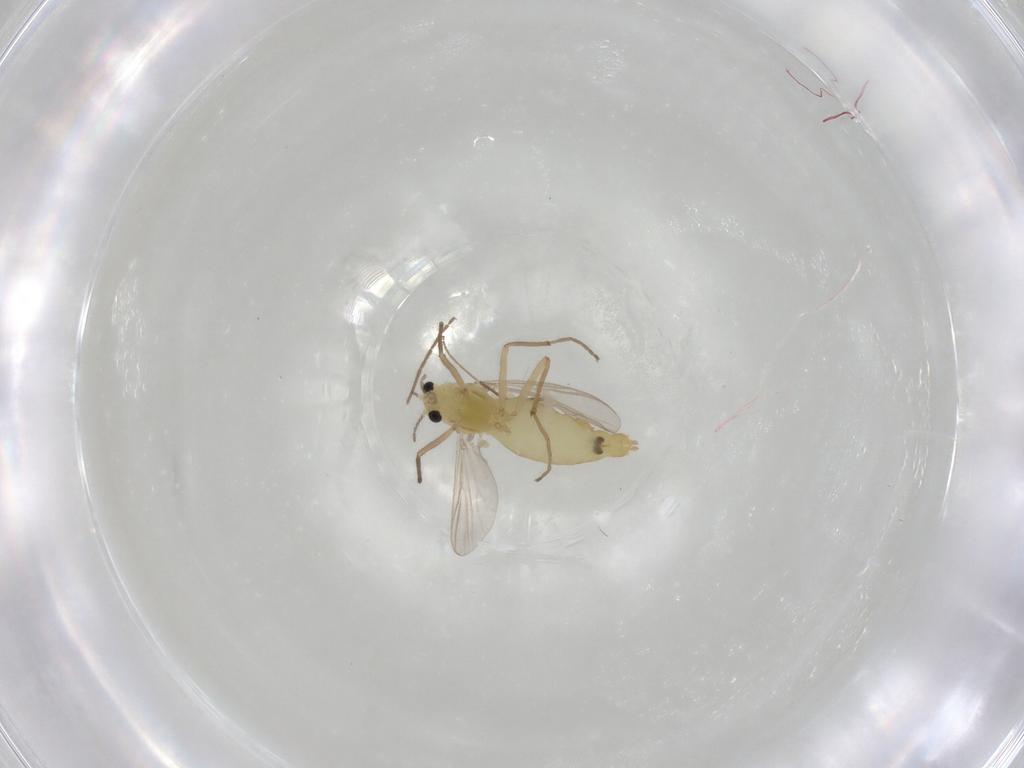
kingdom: Animalia
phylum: Arthropoda
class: Insecta
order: Diptera
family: Chironomidae
